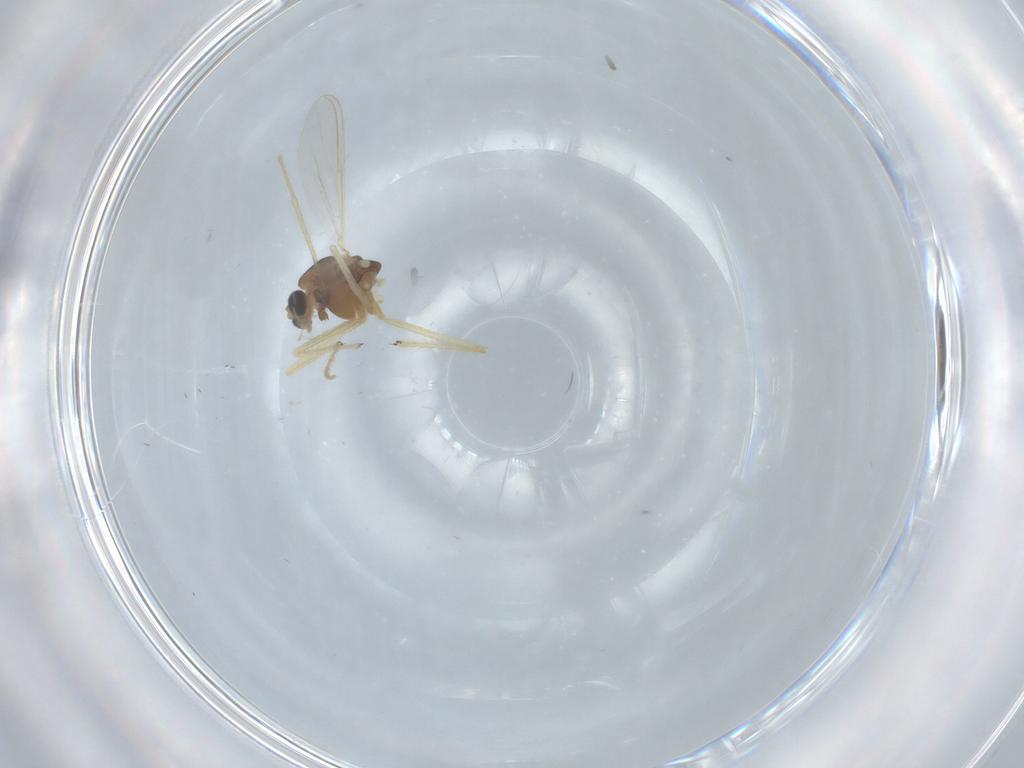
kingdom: Animalia
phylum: Arthropoda
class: Insecta
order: Diptera
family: Chironomidae
